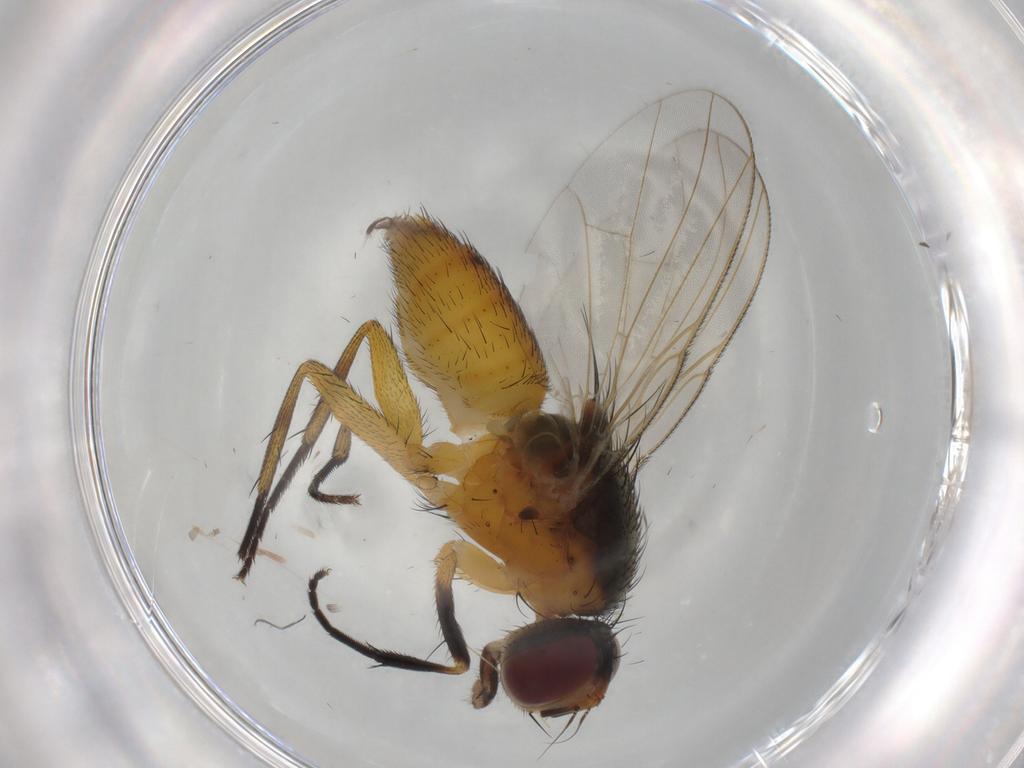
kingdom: Animalia
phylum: Arthropoda
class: Insecta
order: Diptera
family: Muscidae
